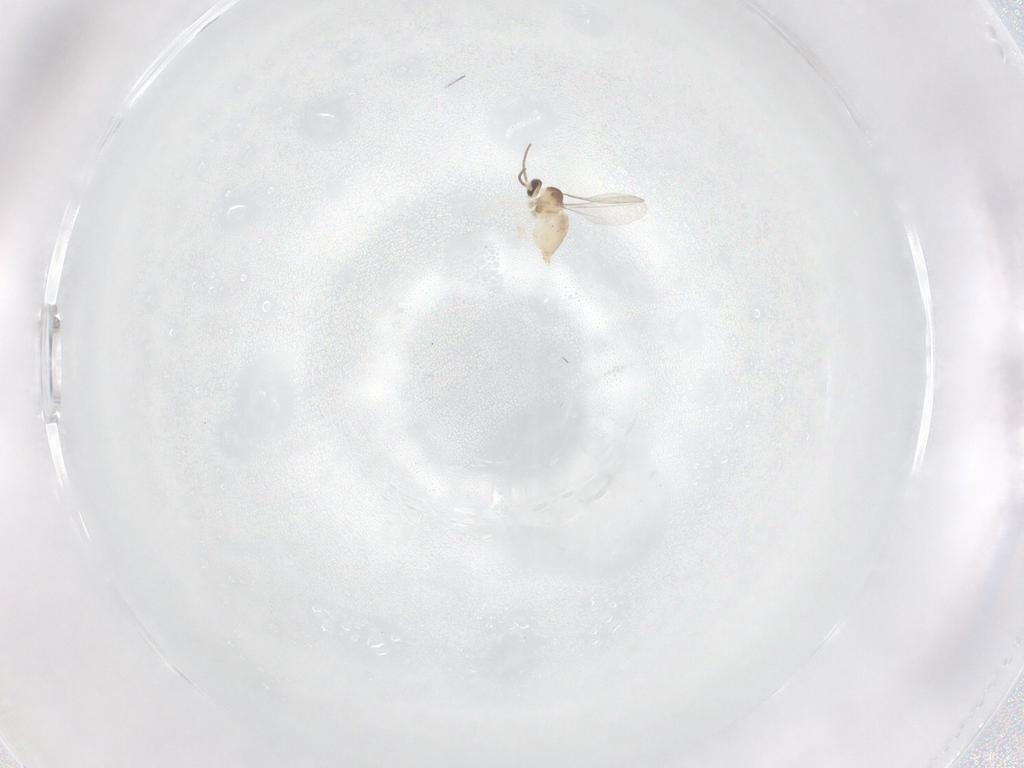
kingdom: Animalia
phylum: Arthropoda
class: Insecta
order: Diptera
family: Cecidomyiidae
